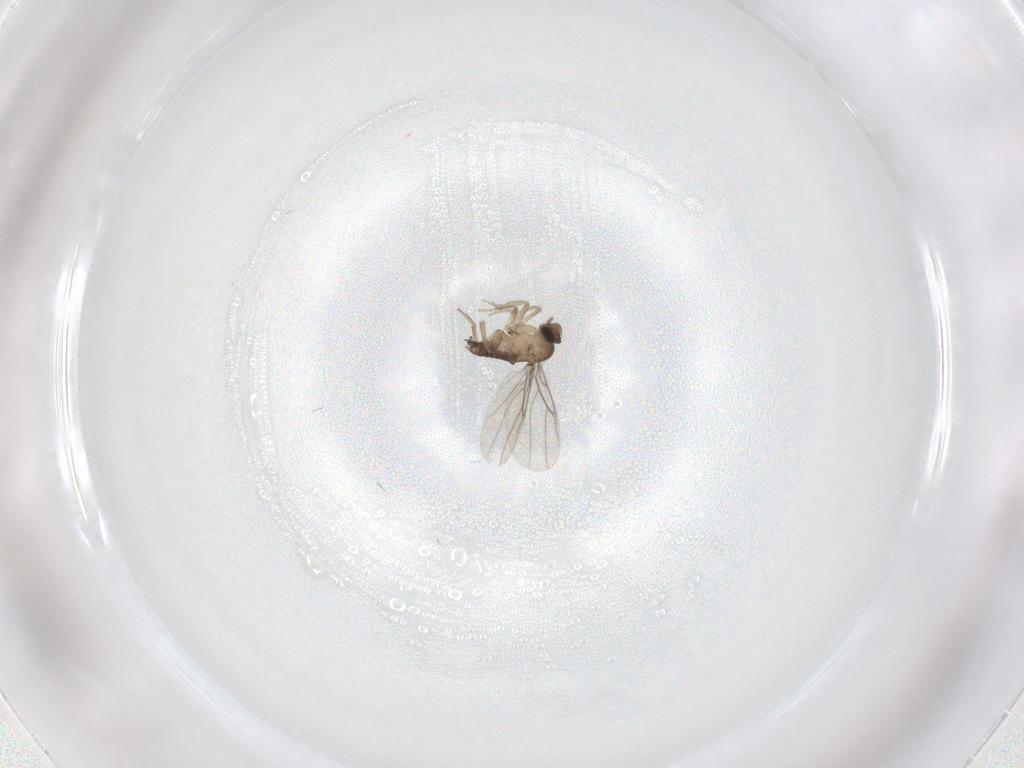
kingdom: Animalia
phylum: Arthropoda
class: Insecta
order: Diptera
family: Phoridae
